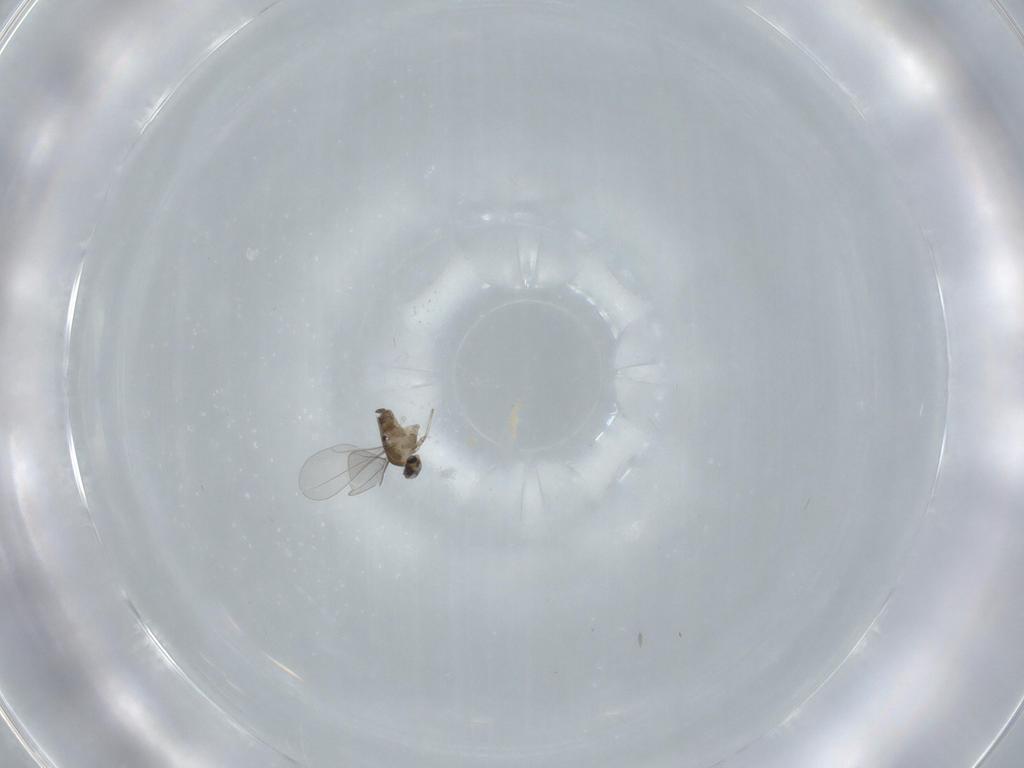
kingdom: Animalia
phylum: Arthropoda
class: Insecta
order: Diptera
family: Cecidomyiidae
